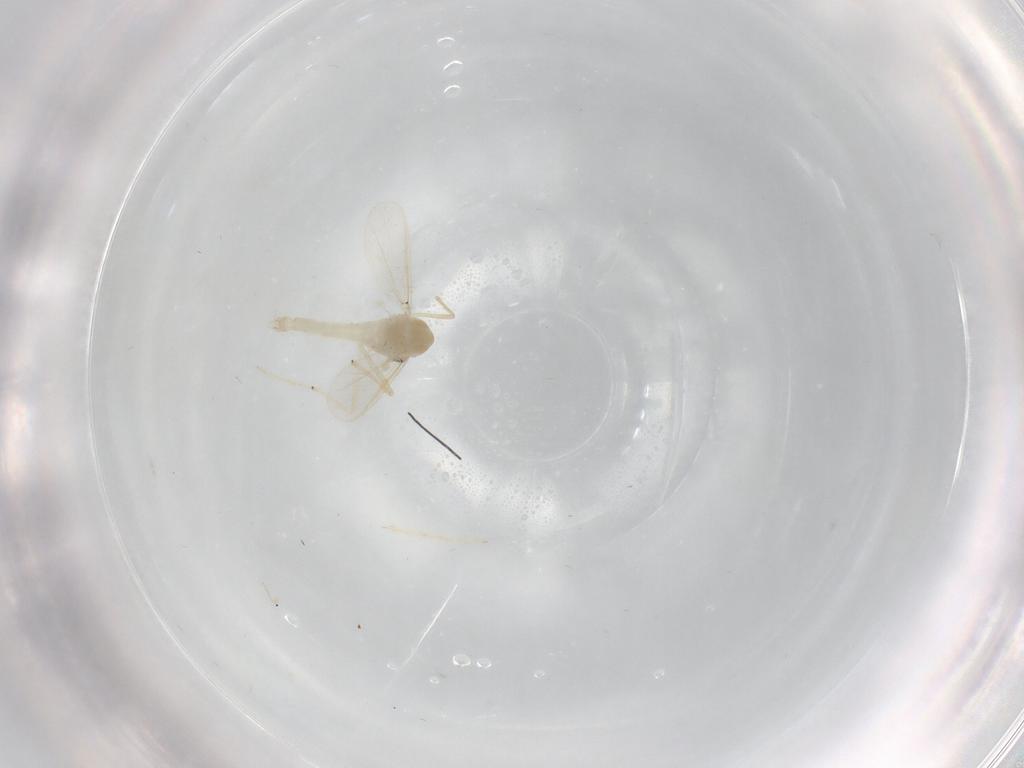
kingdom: Animalia
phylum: Arthropoda
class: Insecta
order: Diptera
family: Chironomidae
